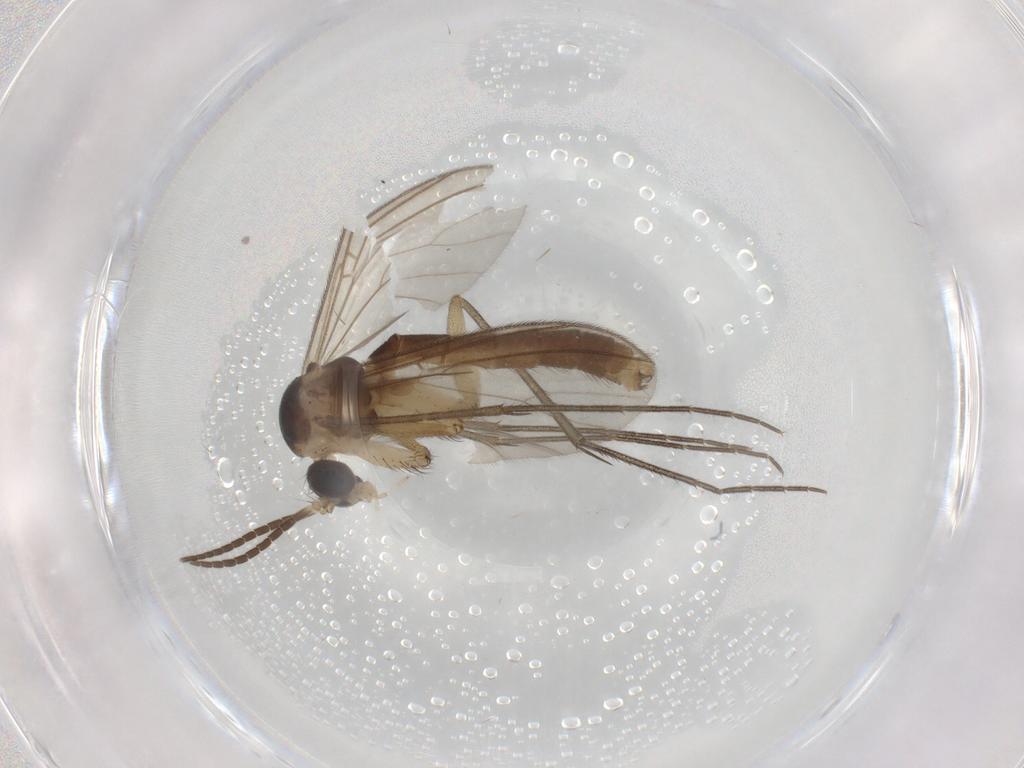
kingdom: Animalia
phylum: Arthropoda
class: Insecta
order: Diptera
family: Mycetophilidae
